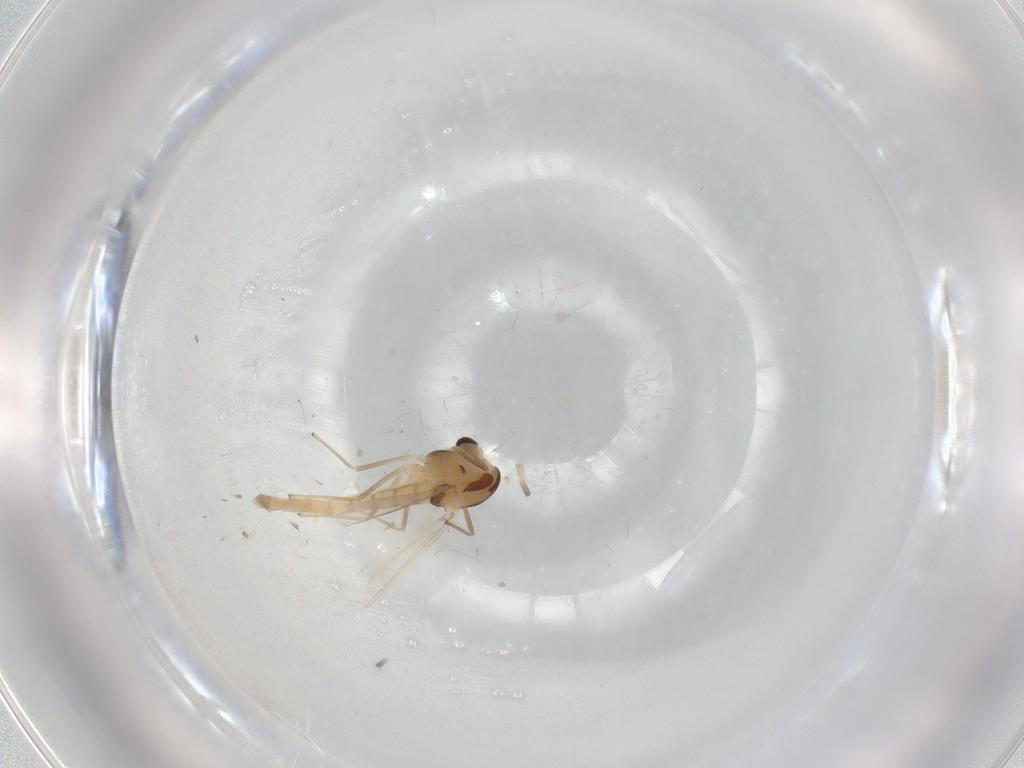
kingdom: Animalia
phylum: Arthropoda
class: Insecta
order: Diptera
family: Chironomidae
